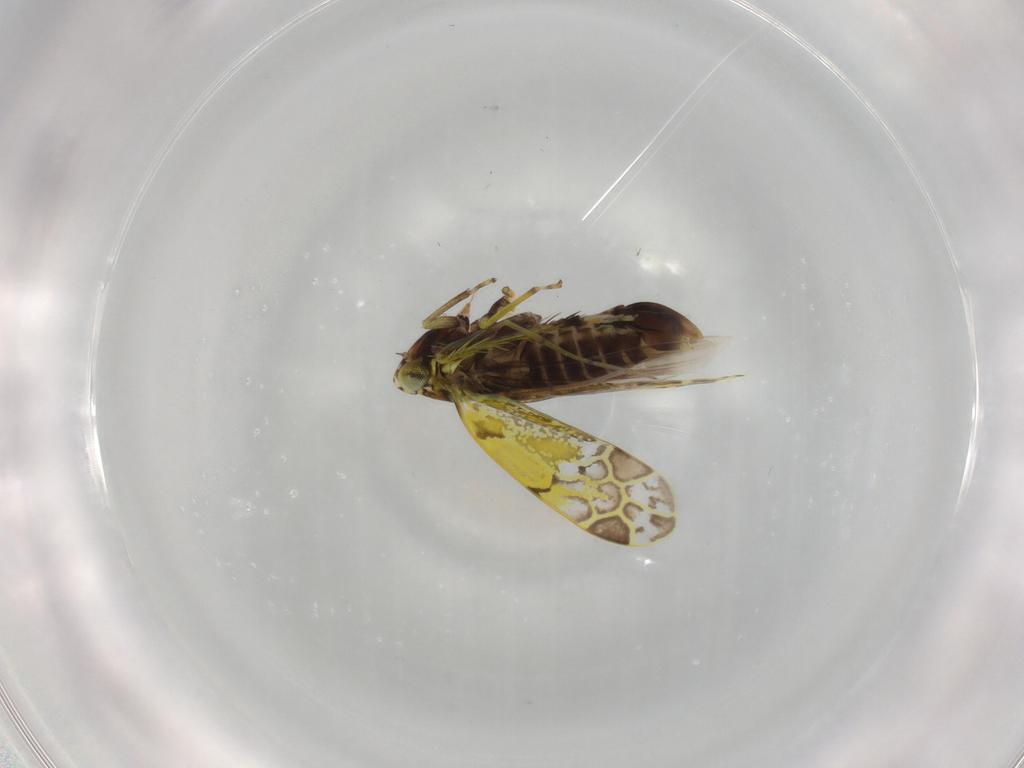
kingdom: Animalia
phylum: Arthropoda
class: Insecta
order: Hemiptera
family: Cicadellidae
